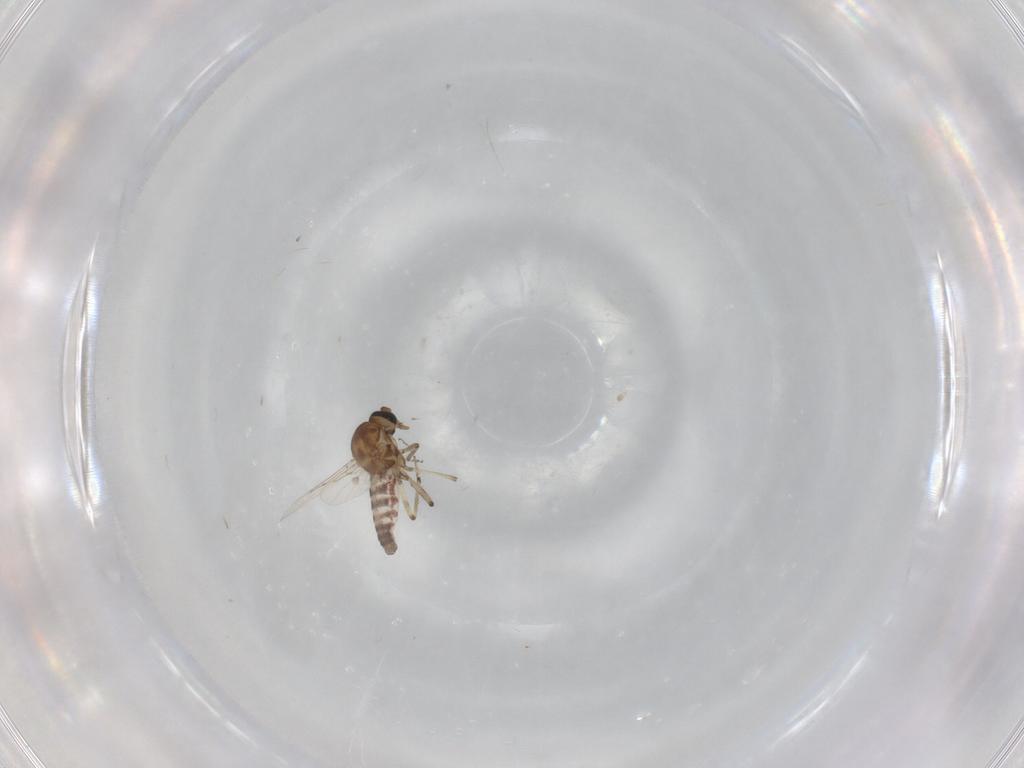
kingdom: Animalia
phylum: Arthropoda
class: Insecta
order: Diptera
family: Ceratopogonidae
